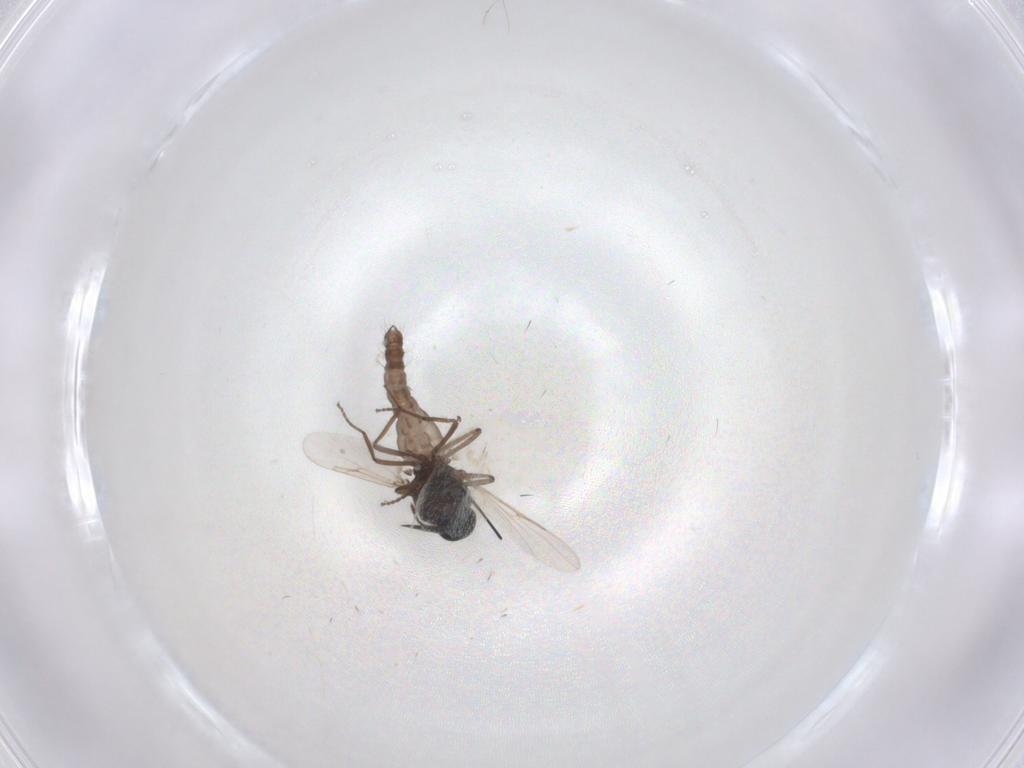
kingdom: Animalia
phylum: Arthropoda
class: Insecta
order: Diptera
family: Ceratopogonidae
